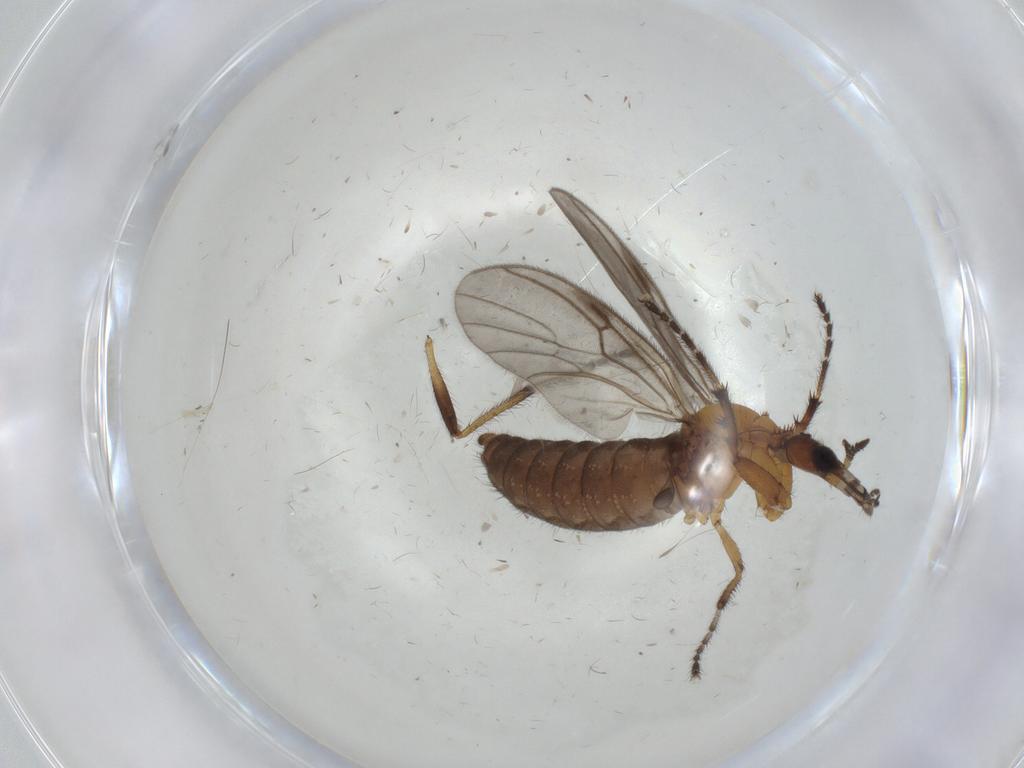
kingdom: Animalia
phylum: Arthropoda
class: Insecta
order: Diptera
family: Bibionidae
